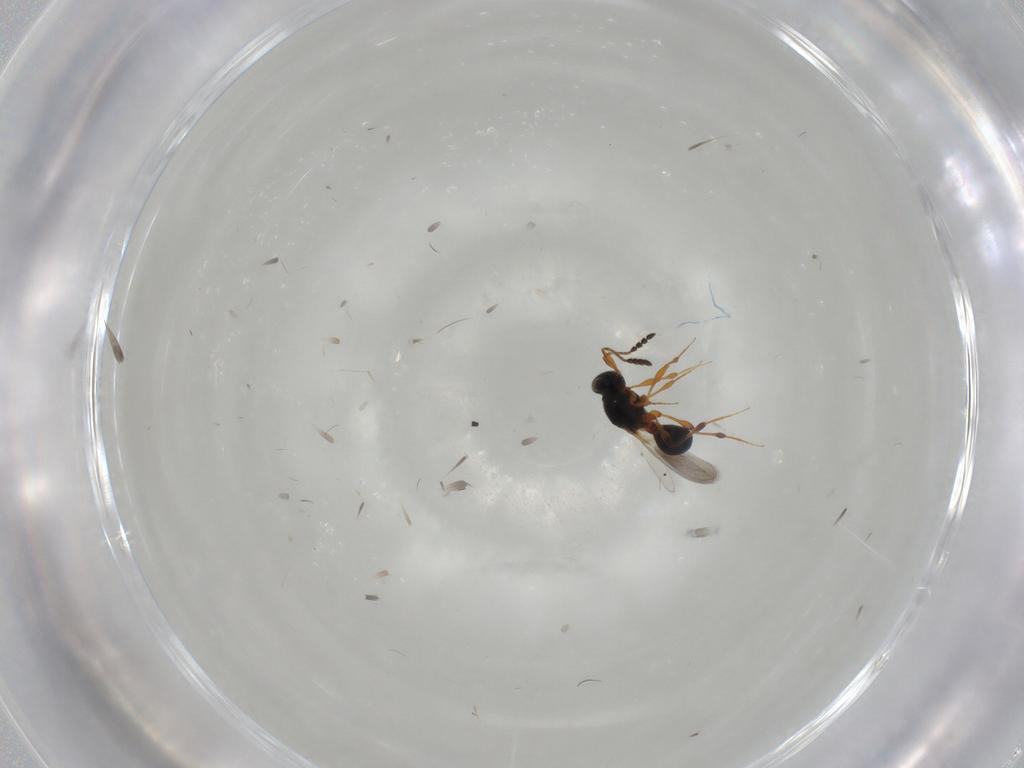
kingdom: Animalia
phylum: Arthropoda
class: Insecta
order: Hymenoptera
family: Platygastridae
